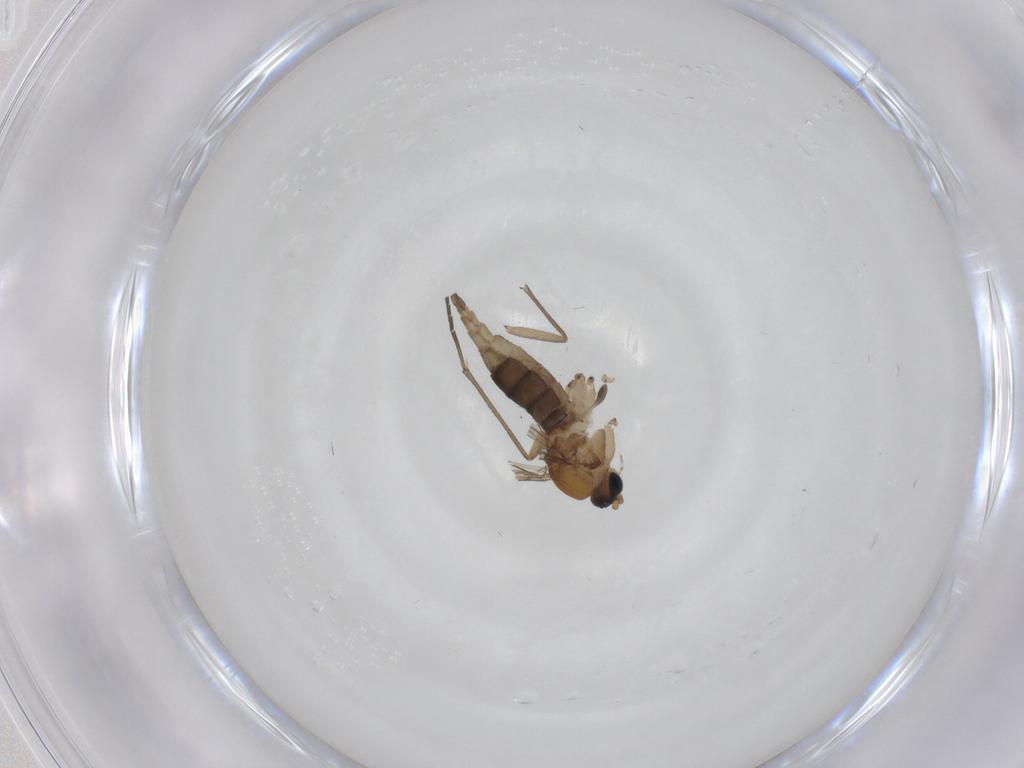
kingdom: Animalia
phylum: Arthropoda
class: Insecta
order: Diptera
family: Sciaridae
